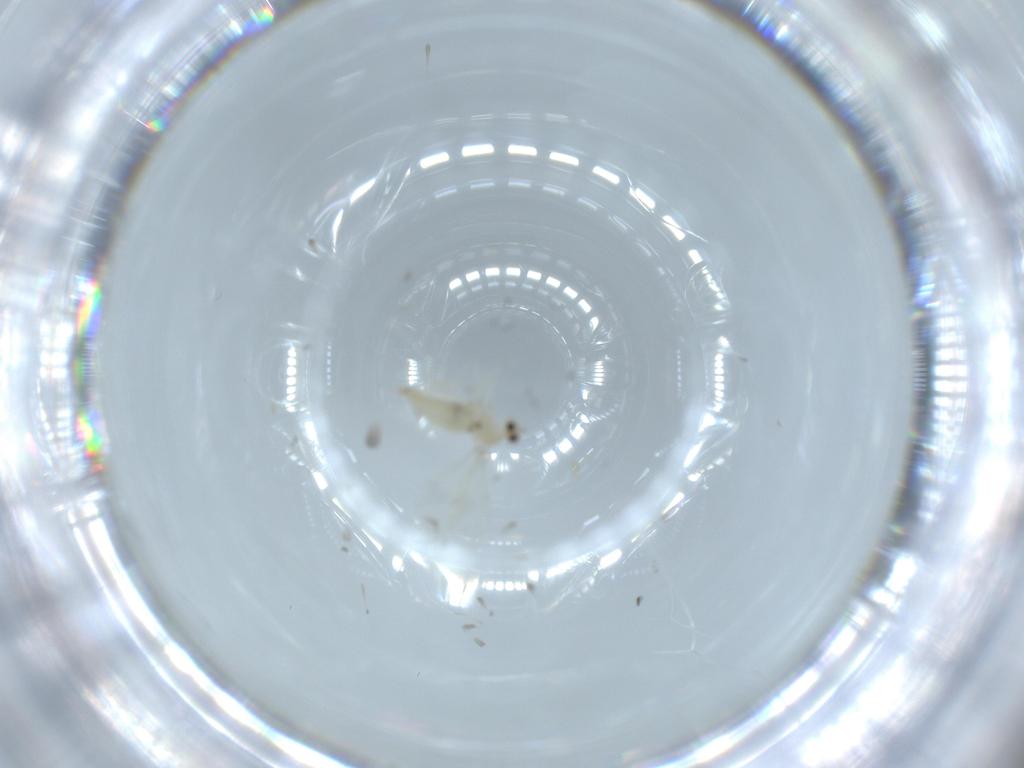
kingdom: Animalia
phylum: Arthropoda
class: Insecta
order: Diptera
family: Cecidomyiidae
